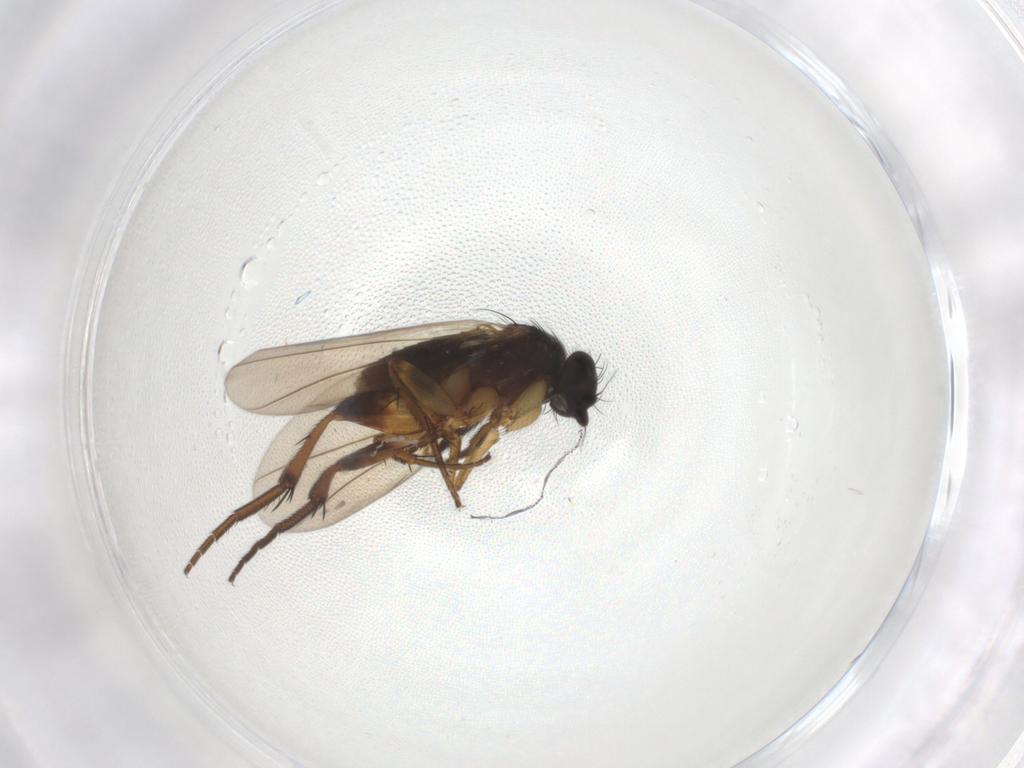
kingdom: Animalia
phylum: Arthropoda
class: Insecta
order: Diptera
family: Phoridae
